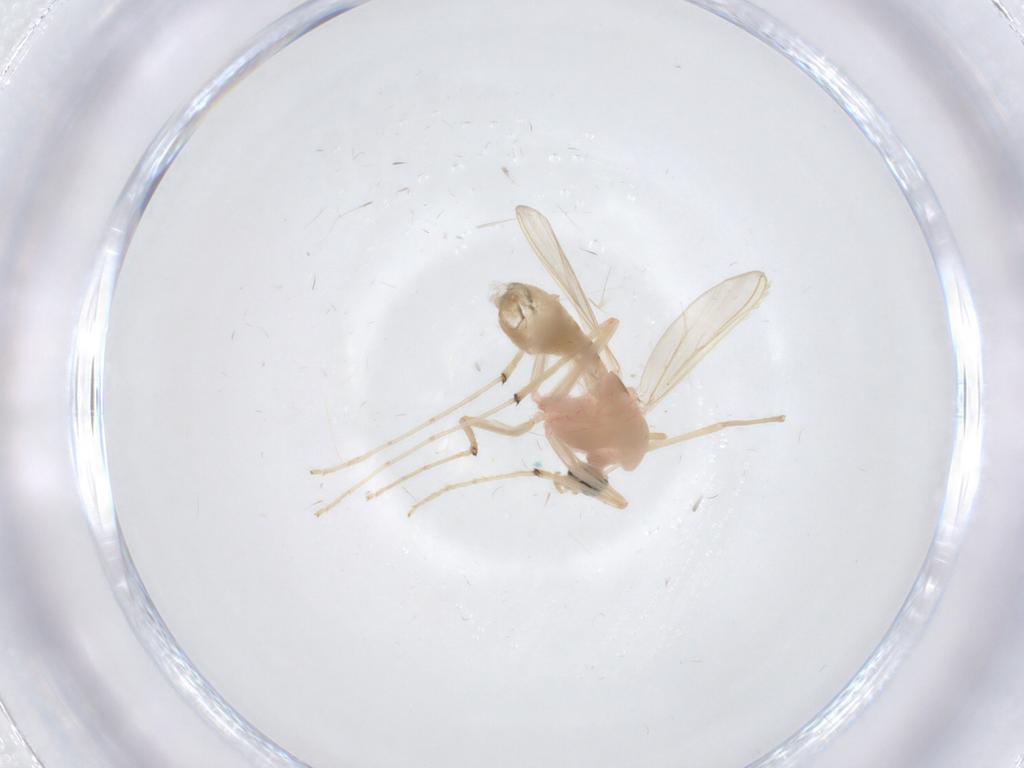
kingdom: Animalia
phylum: Arthropoda
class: Insecta
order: Diptera
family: Chironomidae
